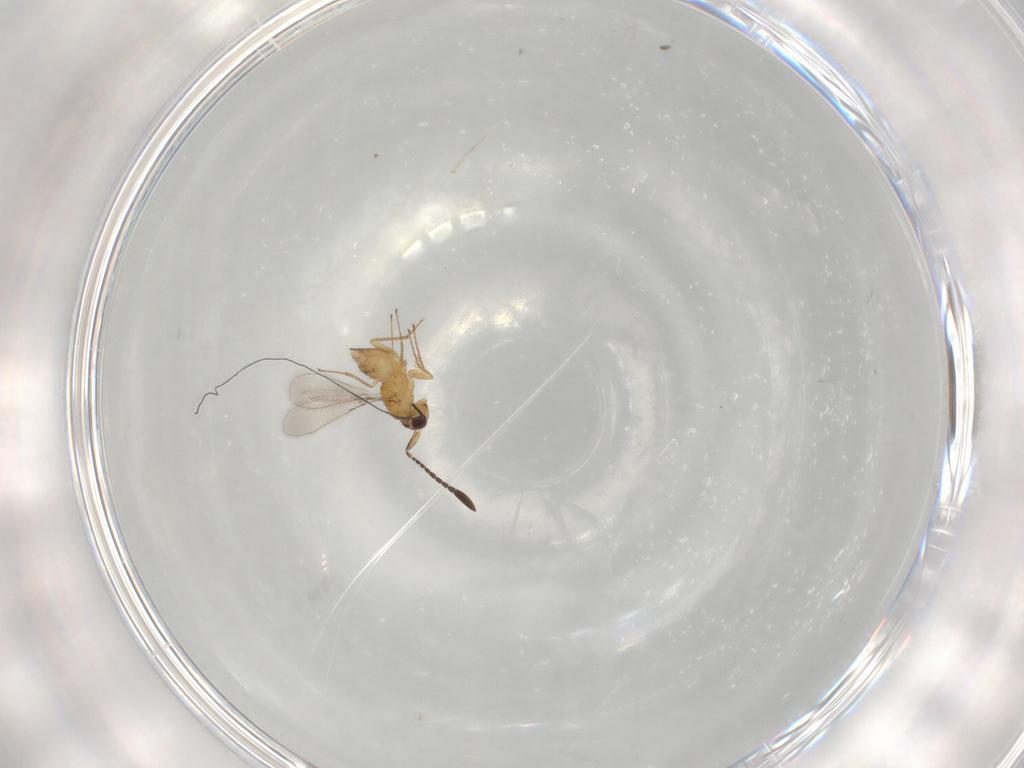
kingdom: Animalia
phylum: Arthropoda
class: Insecta
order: Hymenoptera
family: Mymaridae
